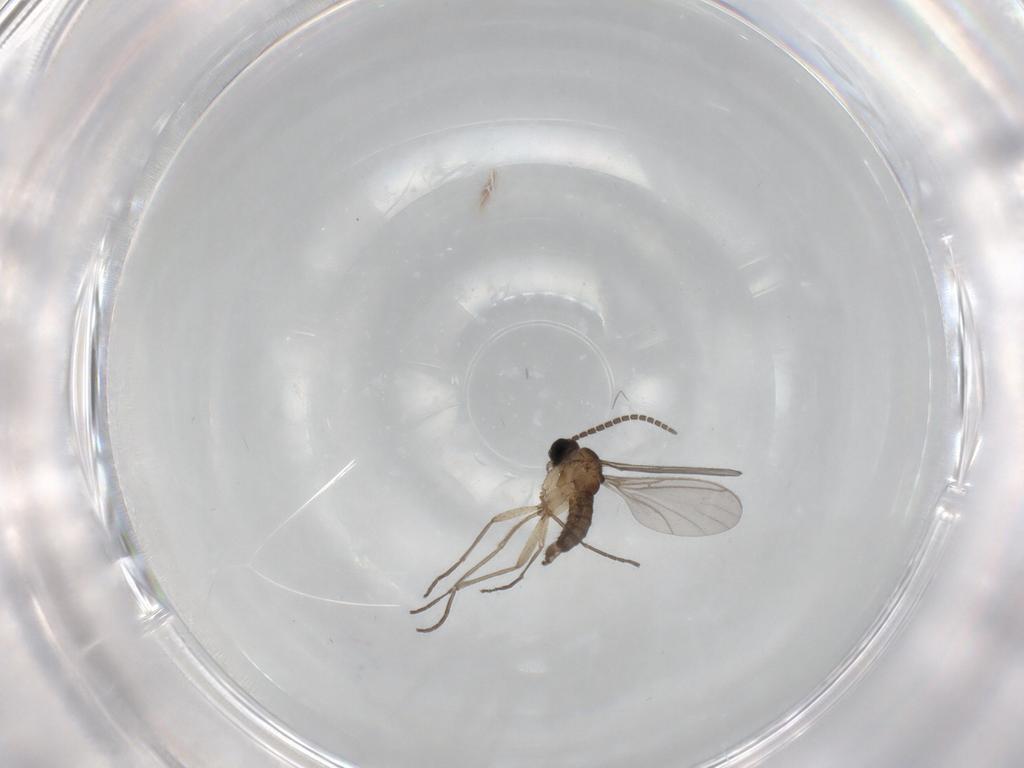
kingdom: Animalia
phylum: Arthropoda
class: Insecta
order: Diptera
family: Sciaridae
